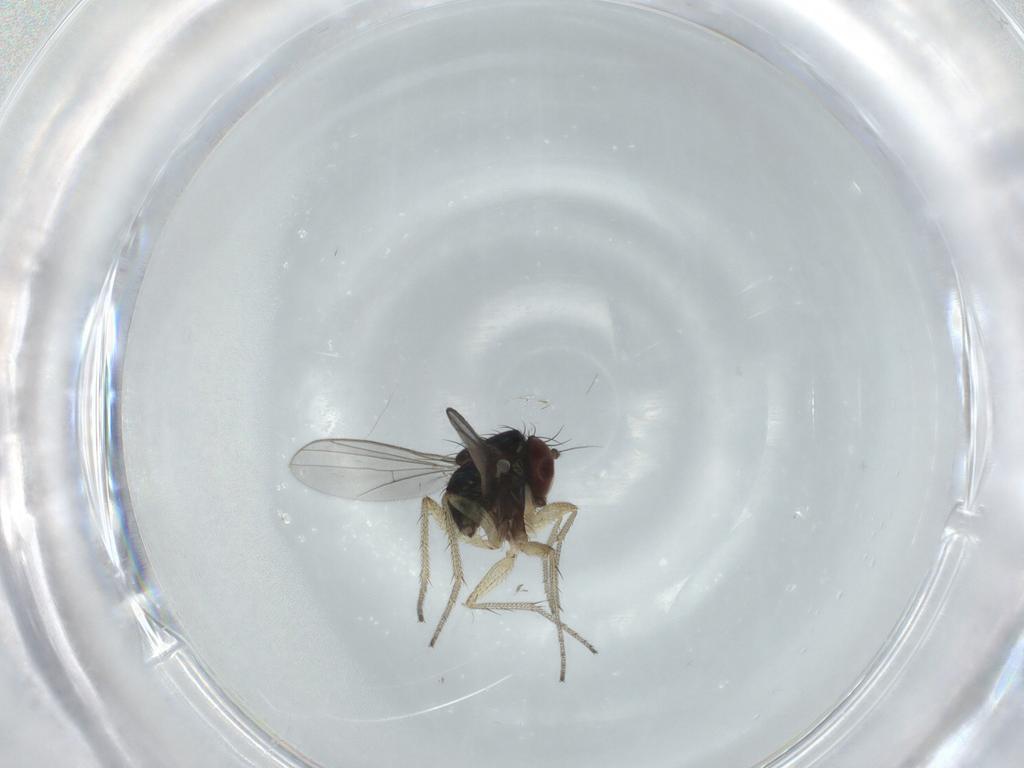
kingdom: Animalia
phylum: Arthropoda
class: Insecta
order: Diptera
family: Dolichopodidae
